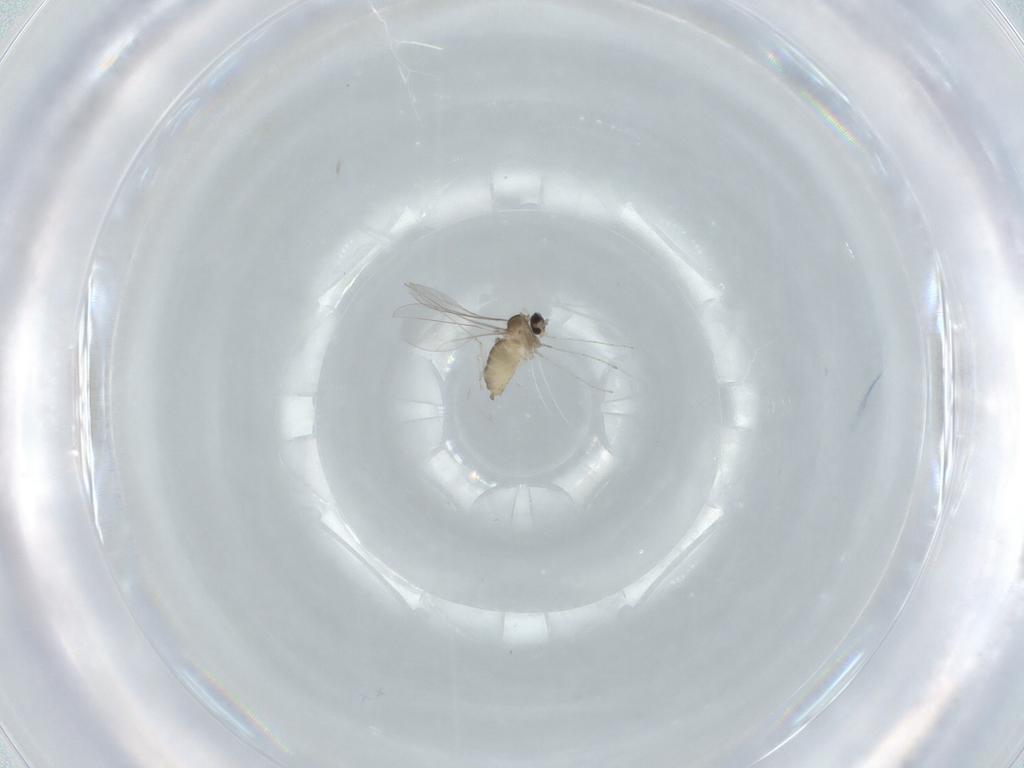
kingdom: Animalia
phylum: Arthropoda
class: Insecta
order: Diptera
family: Cecidomyiidae
